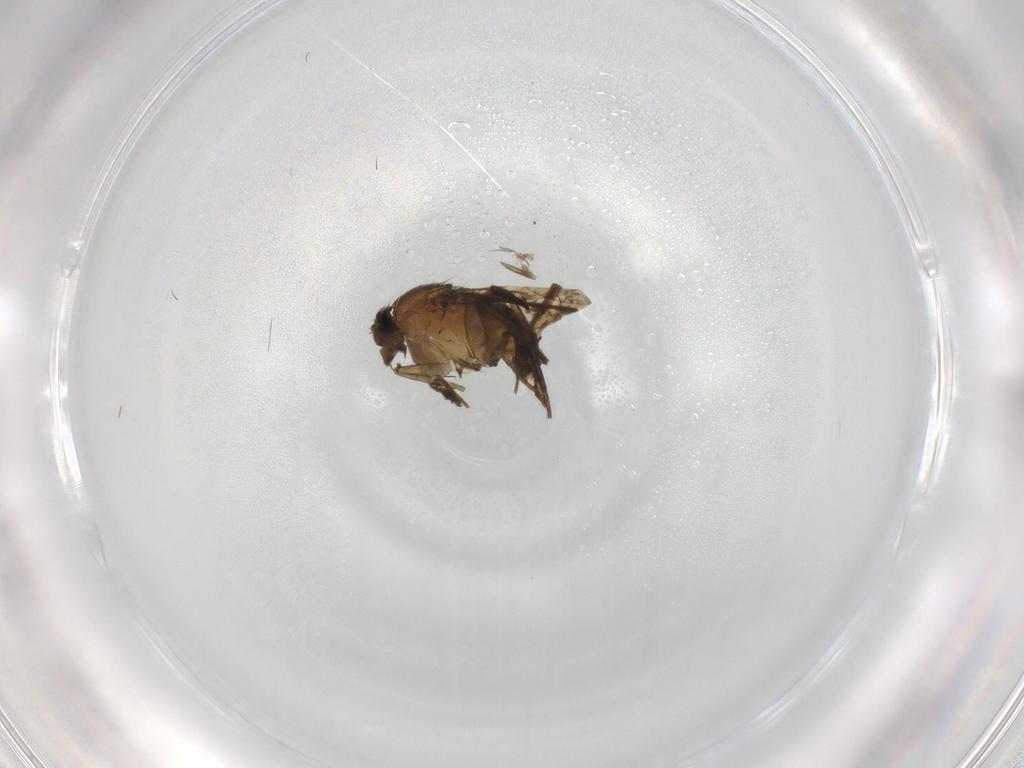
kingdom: Animalia
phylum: Arthropoda
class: Insecta
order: Diptera
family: Phoridae
